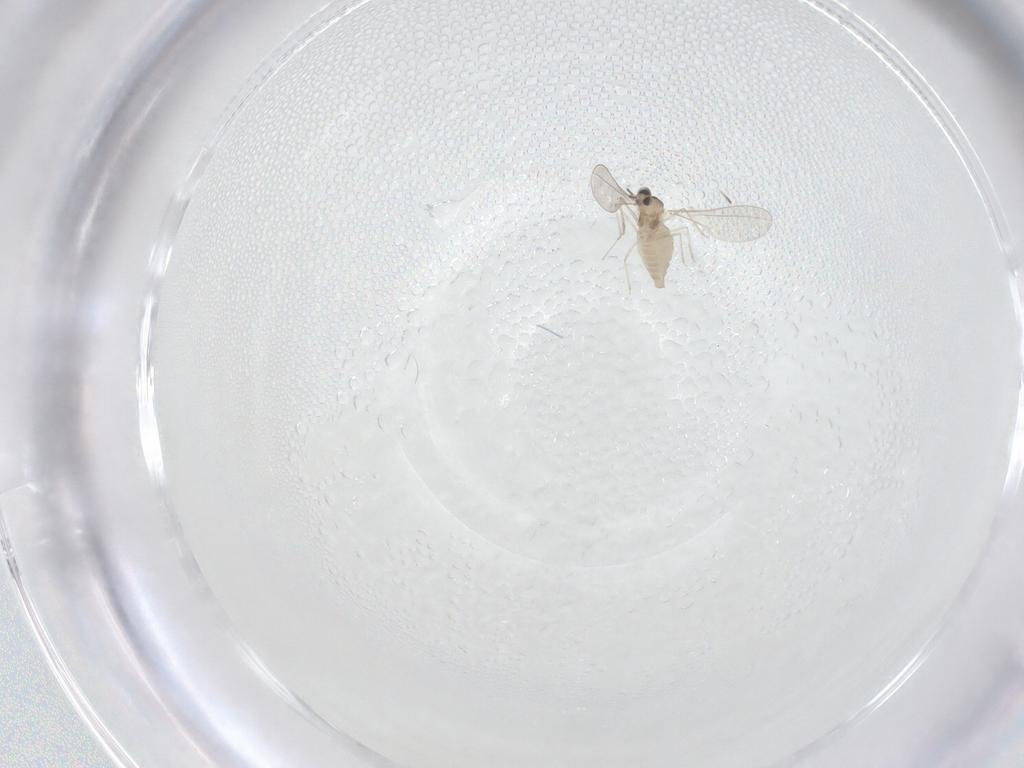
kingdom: Animalia
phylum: Arthropoda
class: Insecta
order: Diptera
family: Cecidomyiidae
